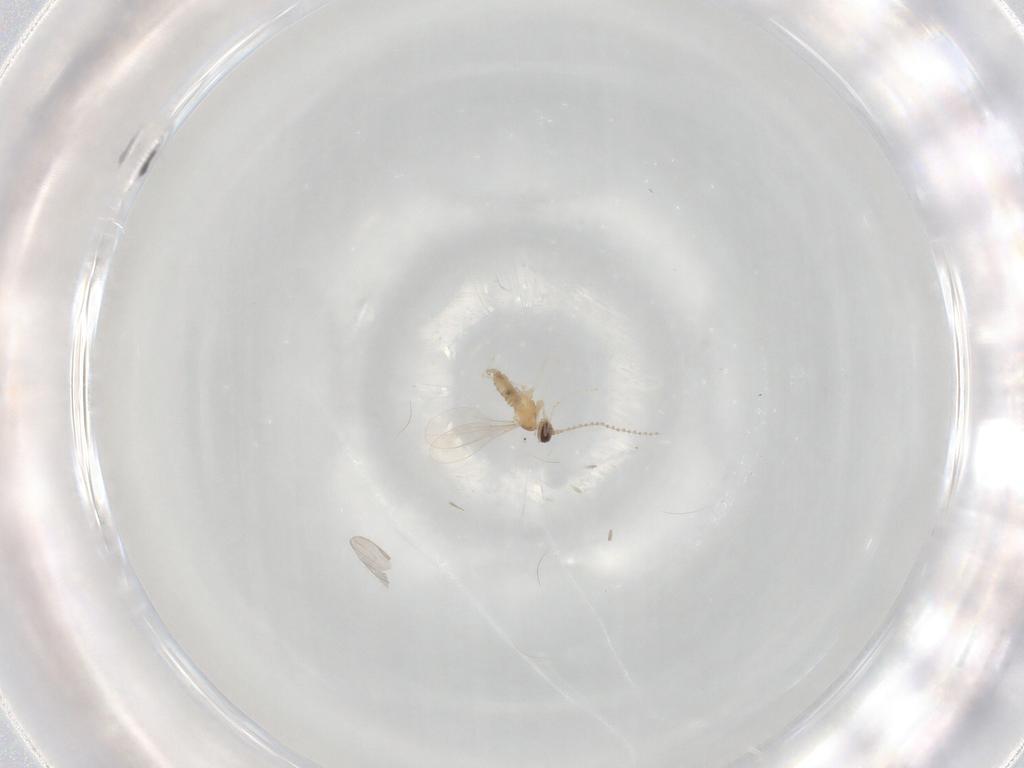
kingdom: Animalia
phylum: Arthropoda
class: Insecta
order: Diptera
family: Cecidomyiidae
